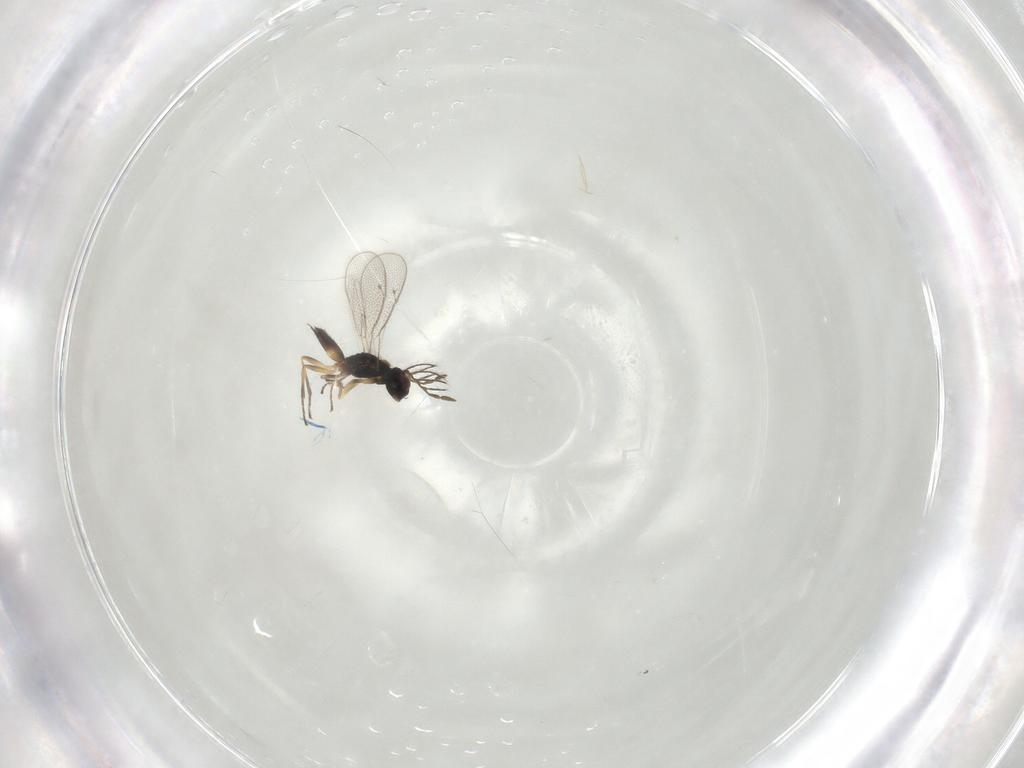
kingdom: Animalia
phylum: Arthropoda
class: Insecta
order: Hymenoptera
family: Eulophidae
